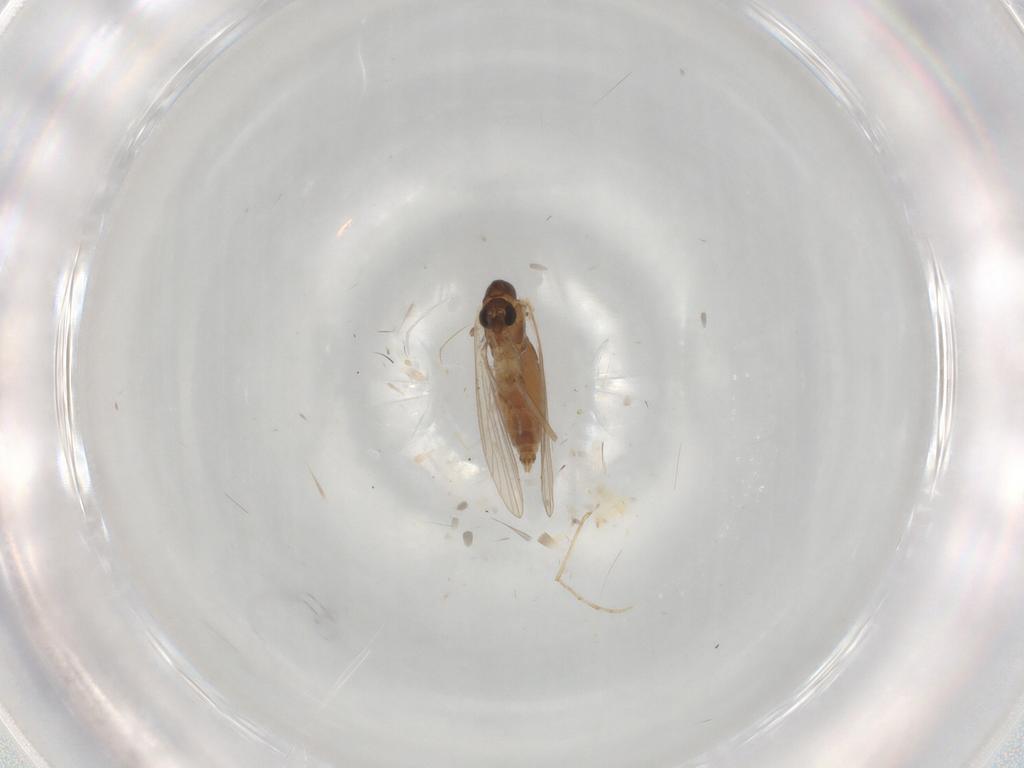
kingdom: Animalia
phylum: Arthropoda
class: Insecta
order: Diptera
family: Psychodidae
